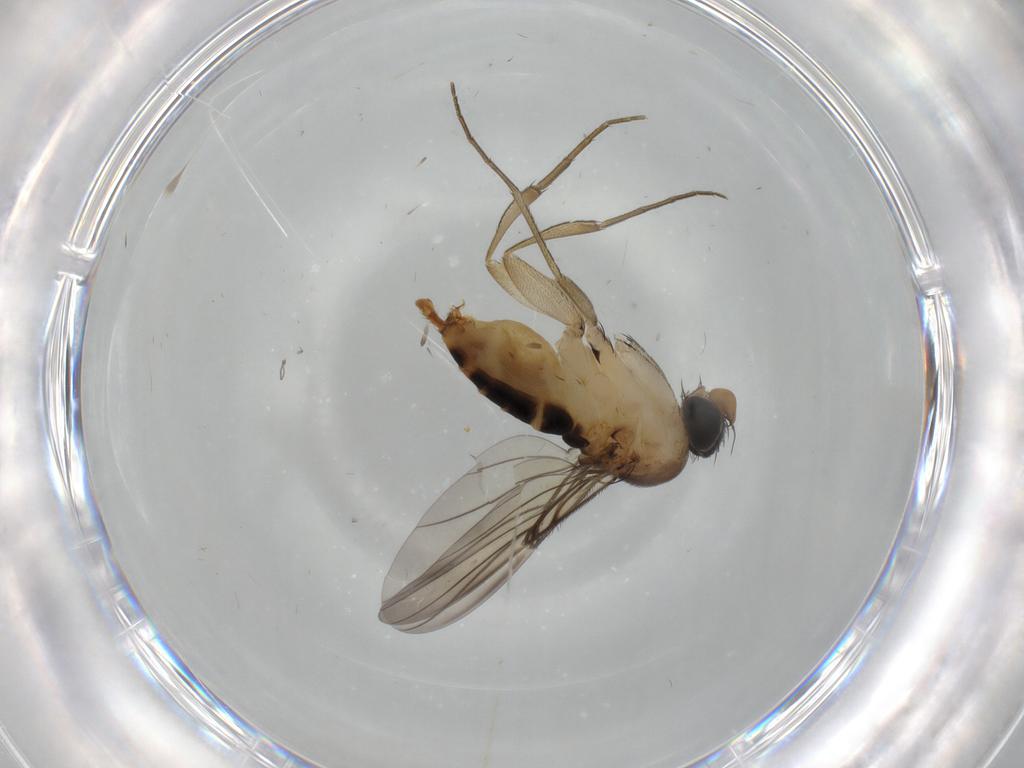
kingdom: Animalia
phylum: Arthropoda
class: Insecta
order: Diptera
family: Phoridae
